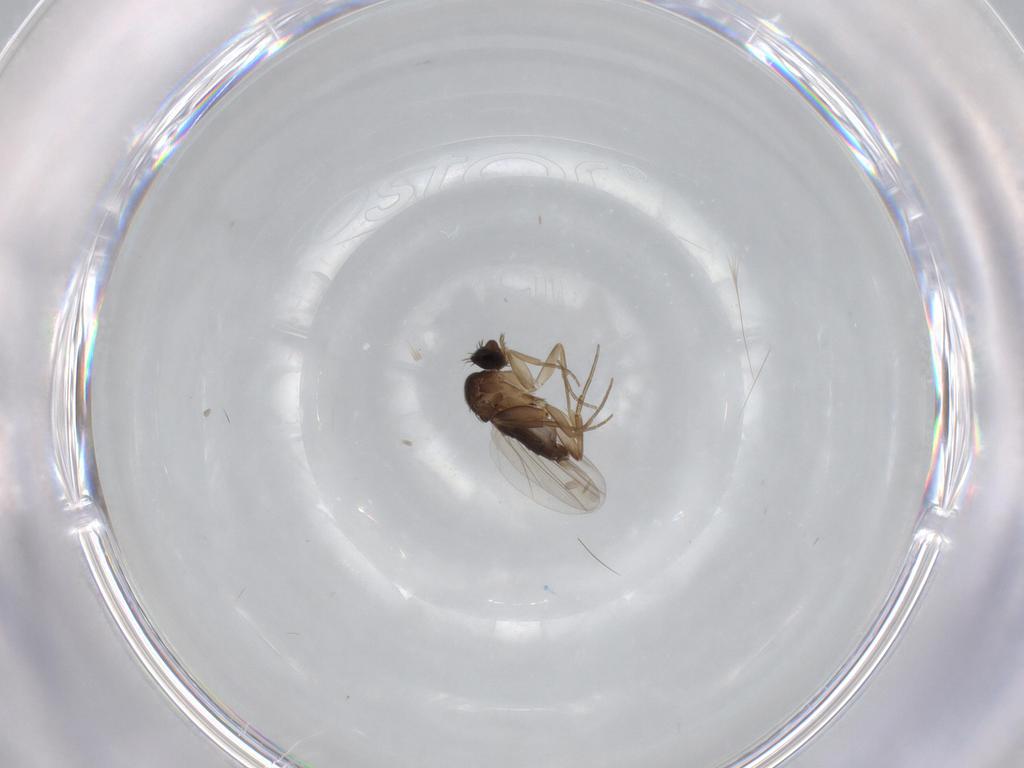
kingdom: Animalia
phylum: Arthropoda
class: Insecta
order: Diptera
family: Phoridae
